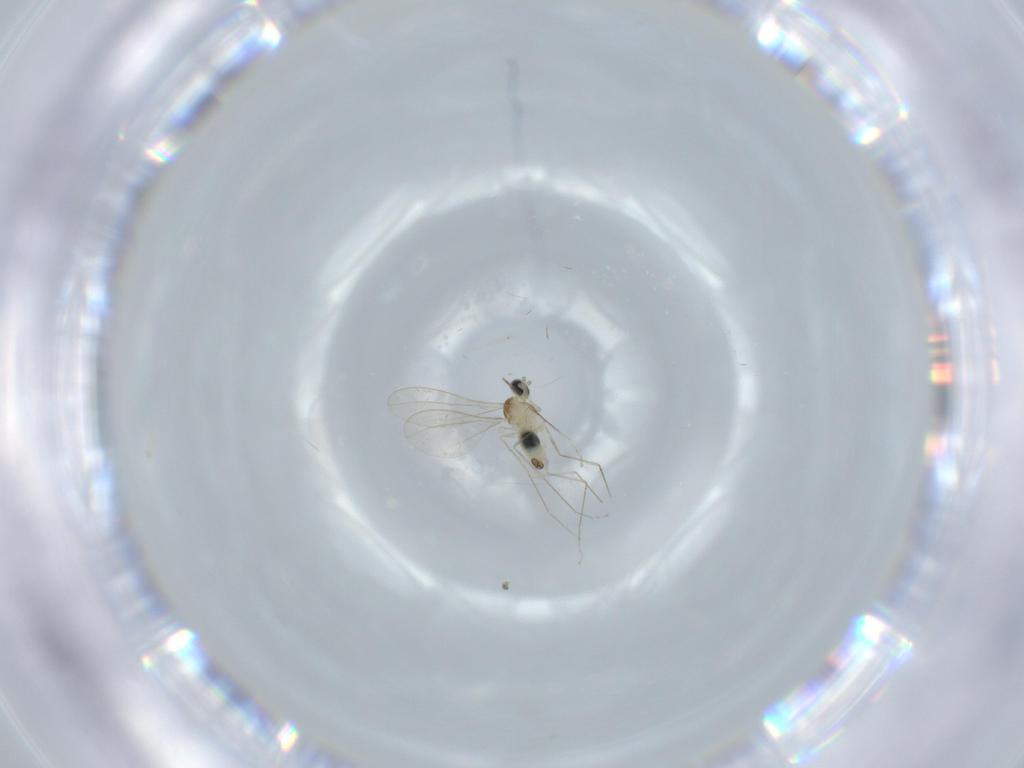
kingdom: Animalia
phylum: Arthropoda
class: Insecta
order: Diptera
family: Cecidomyiidae
